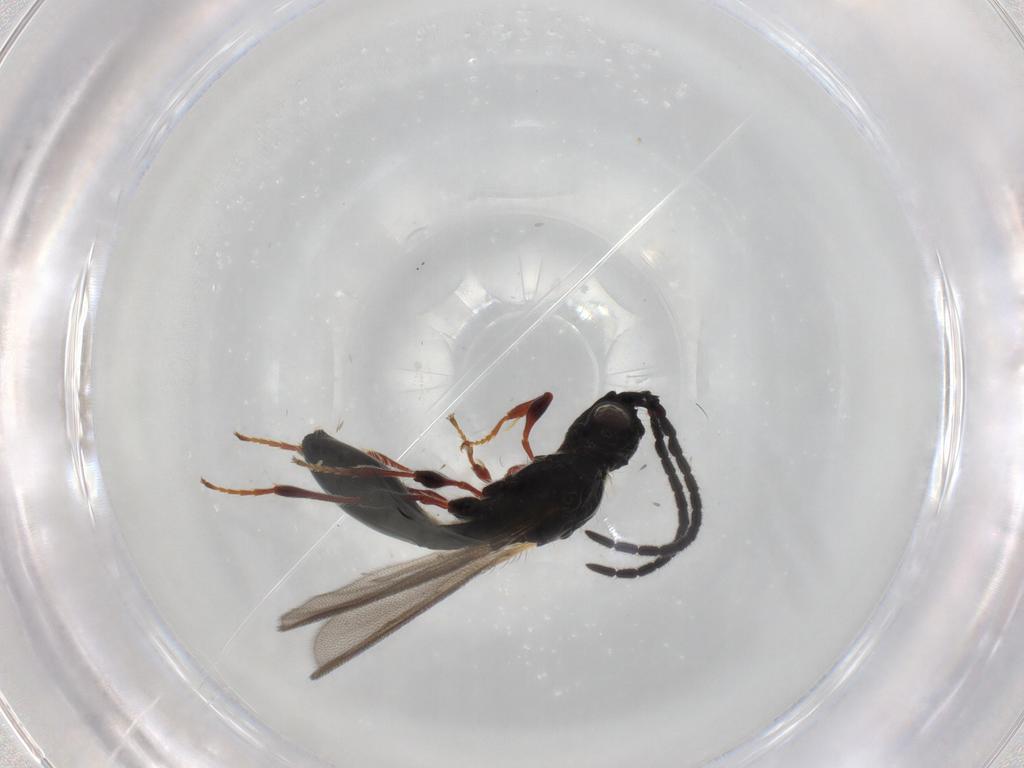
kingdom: Animalia
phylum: Arthropoda
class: Insecta
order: Hymenoptera
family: Diapriidae
